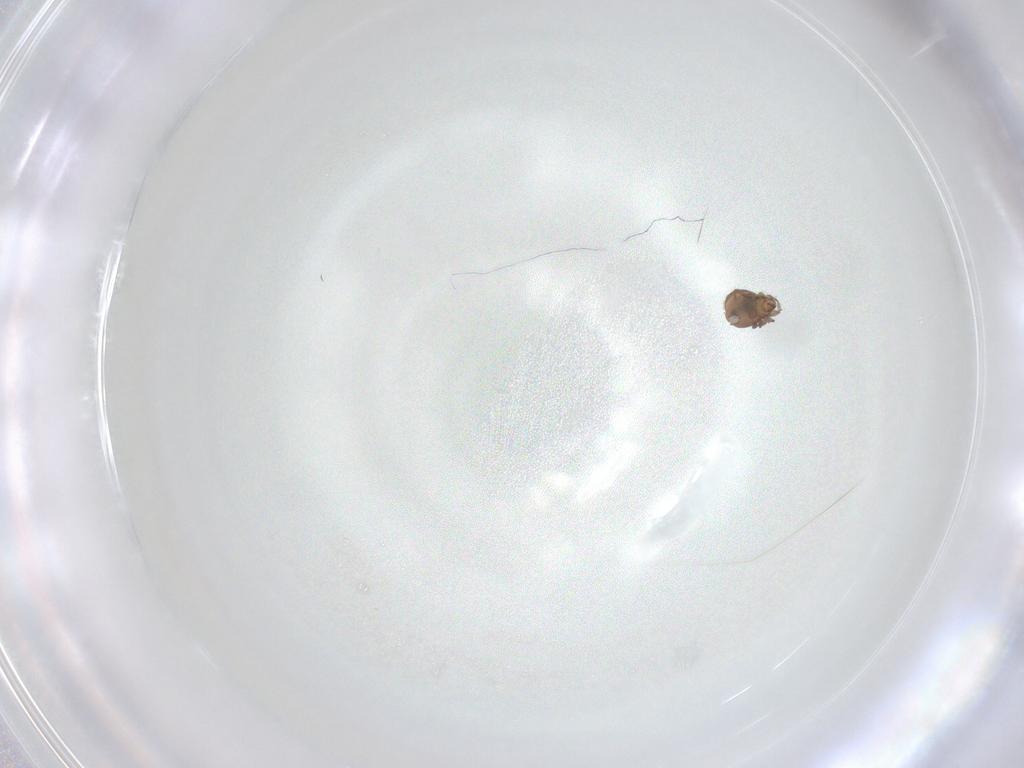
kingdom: Animalia
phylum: Arthropoda
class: Arachnida
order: Sarcoptiformes
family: Scheloribatidae
